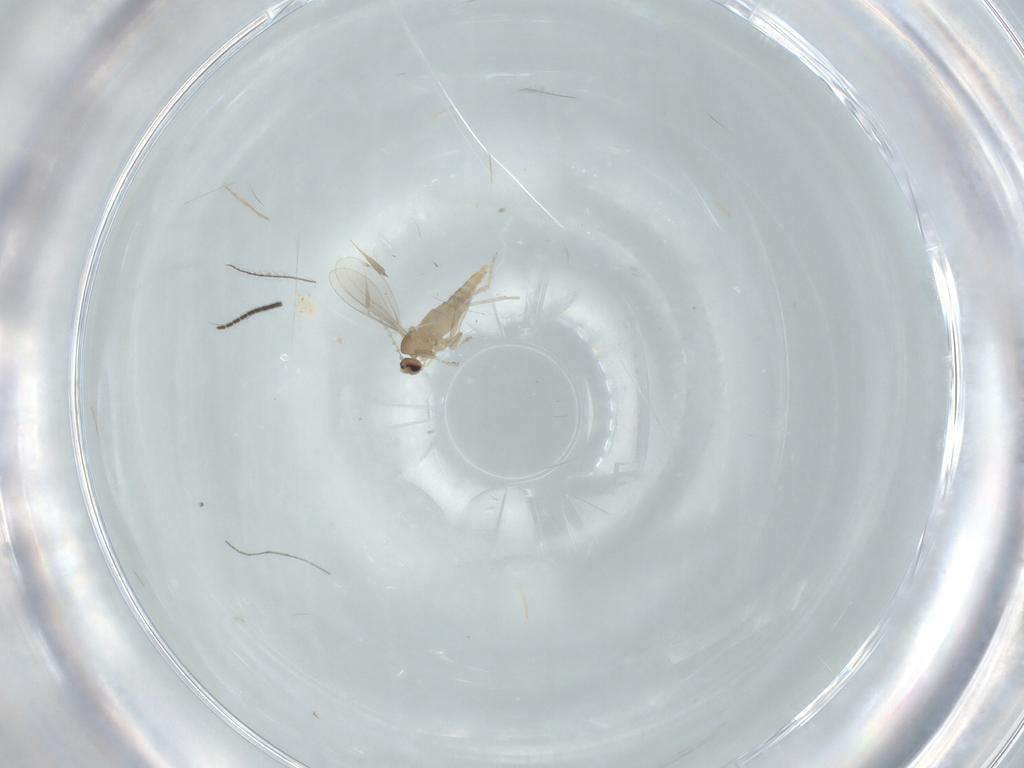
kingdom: Animalia
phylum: Arthropoda
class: Insecta
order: Diptera
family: Cecidomyiidae
